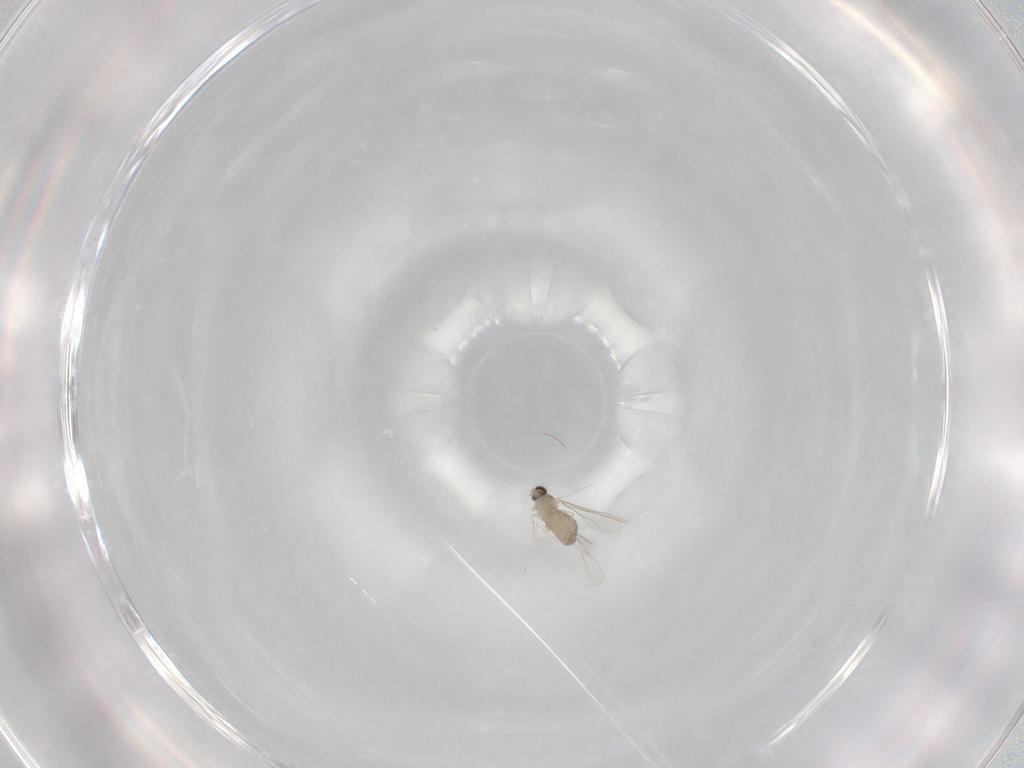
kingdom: Animalia
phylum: Arthropoda
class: Insecta
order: Diptera
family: Cecidomyiidae
